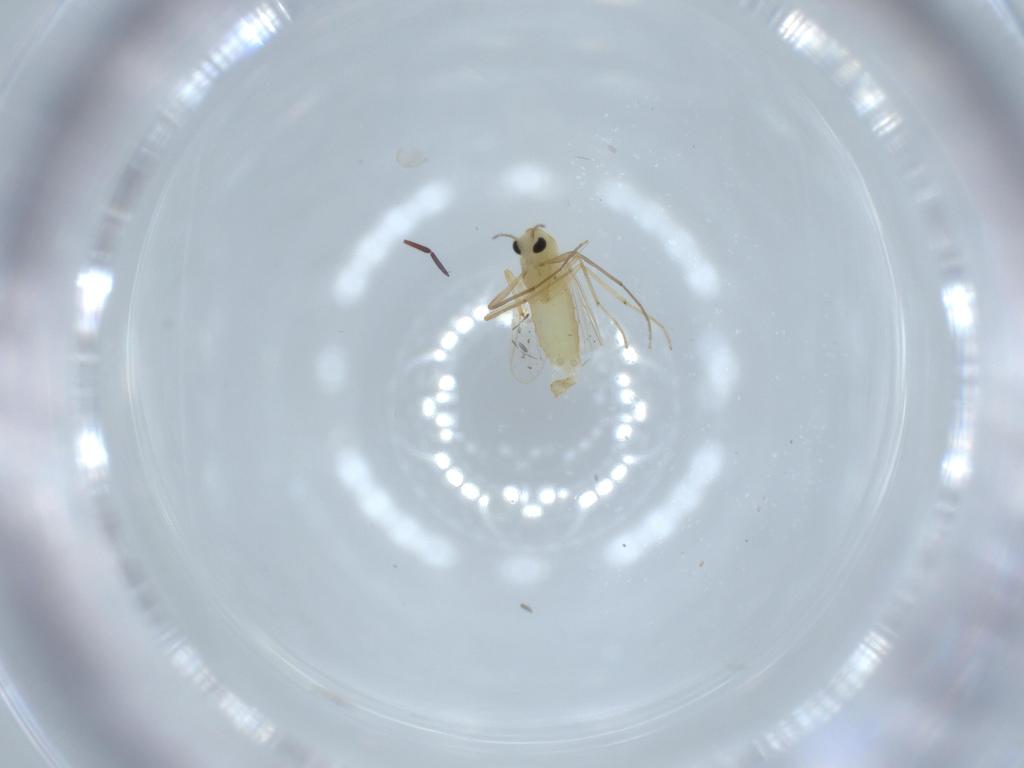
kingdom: Animalia
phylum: Arthropoda
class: Insecta
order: Diptera
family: Chironomidae
